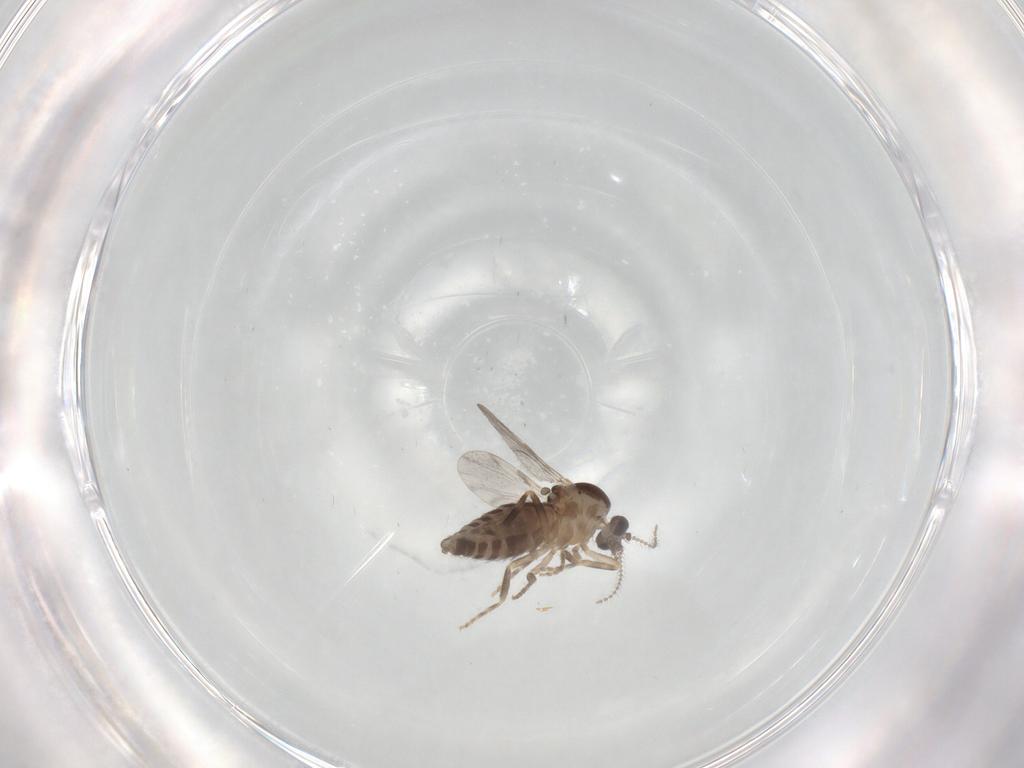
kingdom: Animalia
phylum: Arthropoda
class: Insecta
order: Diptera
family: Ceratopogonidae
